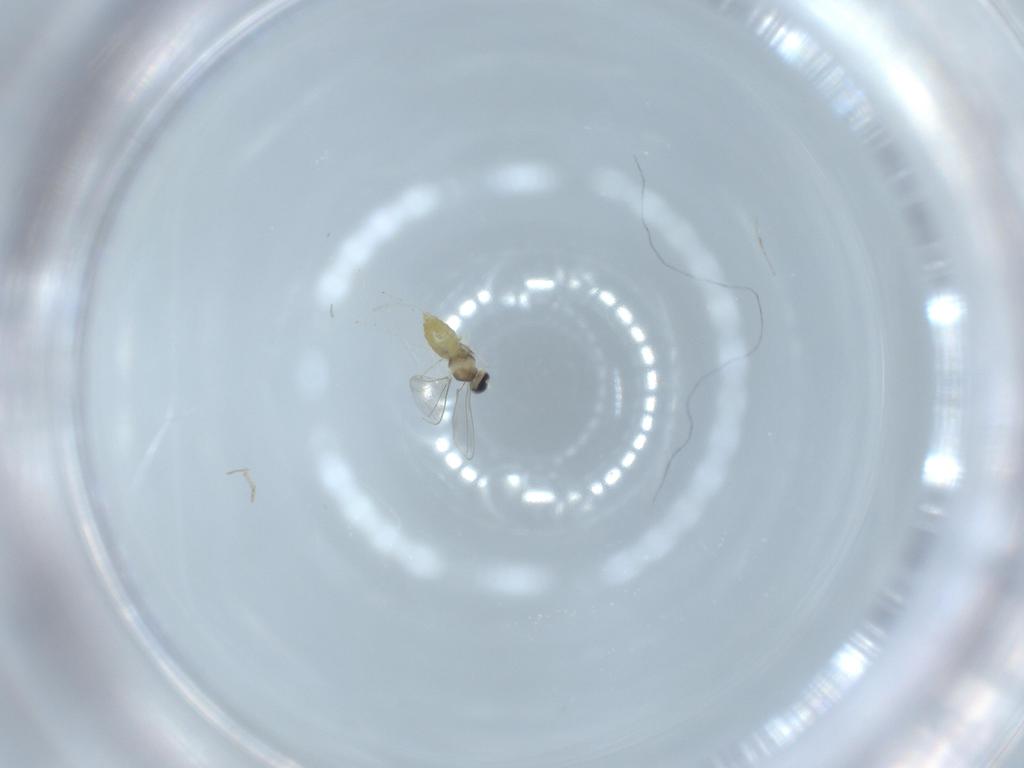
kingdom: Animalia
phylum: Arthropoda
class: Insecta
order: Diptera
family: Cecidomyiidae
